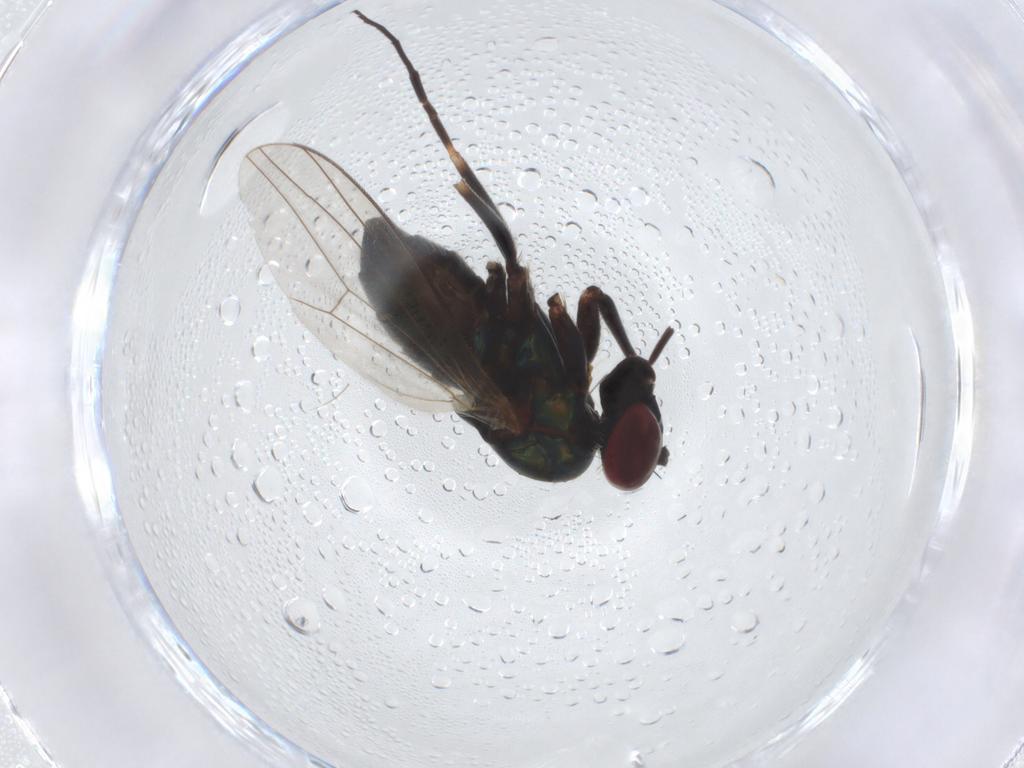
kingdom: Animalia
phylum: Arthropoda
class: Insecta
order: Diptera
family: Dolichopodidae
